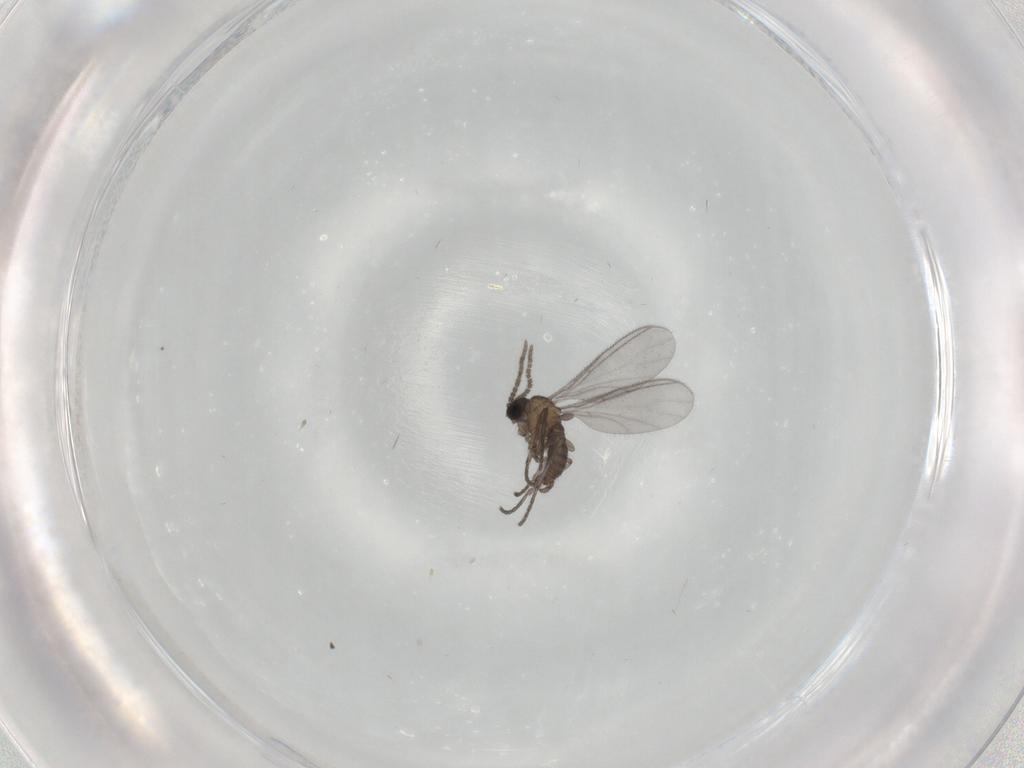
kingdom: Animalia
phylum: Arthropoda
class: Insecta
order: Diptera
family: Sciaridae
